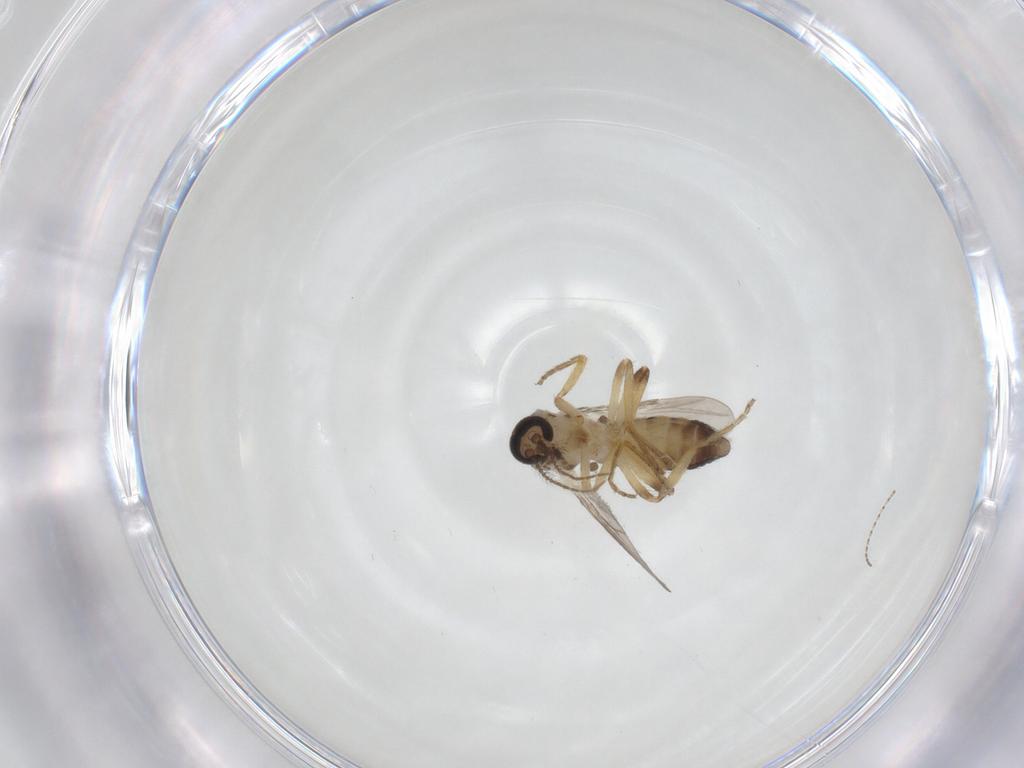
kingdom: Animalia
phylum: Arthropoda
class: Insecta
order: Diptera
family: Ceratopogonidae
